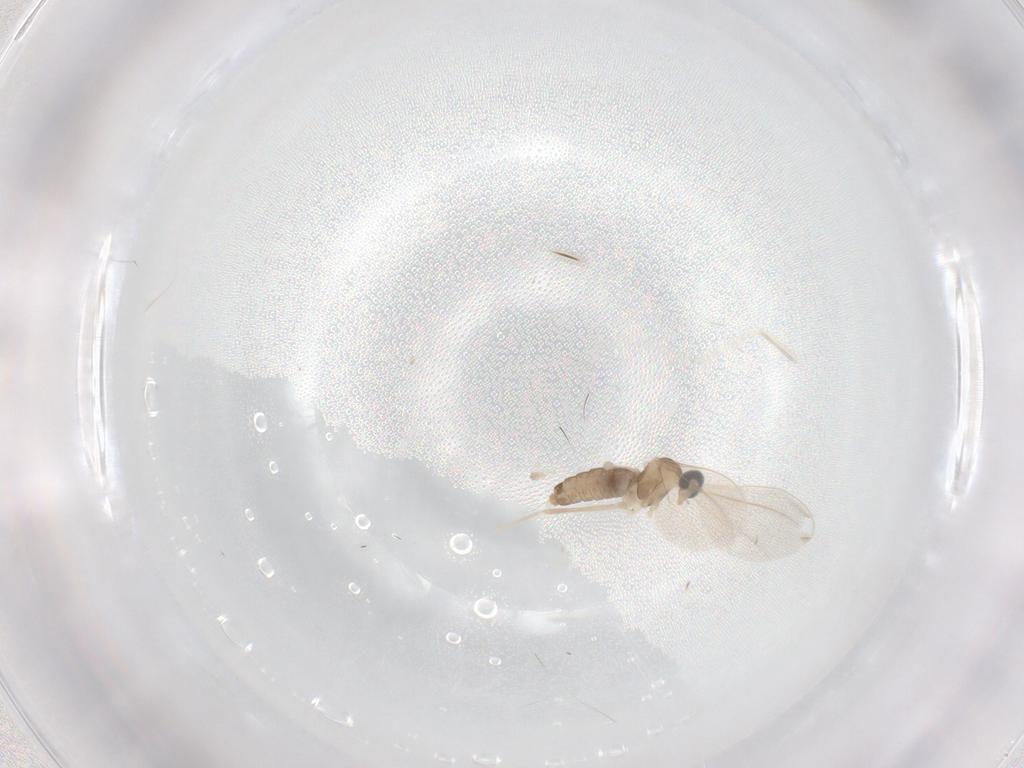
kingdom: Animalia
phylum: Arthropoda
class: Insecta
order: Diptera
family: Cecidomyiidae
